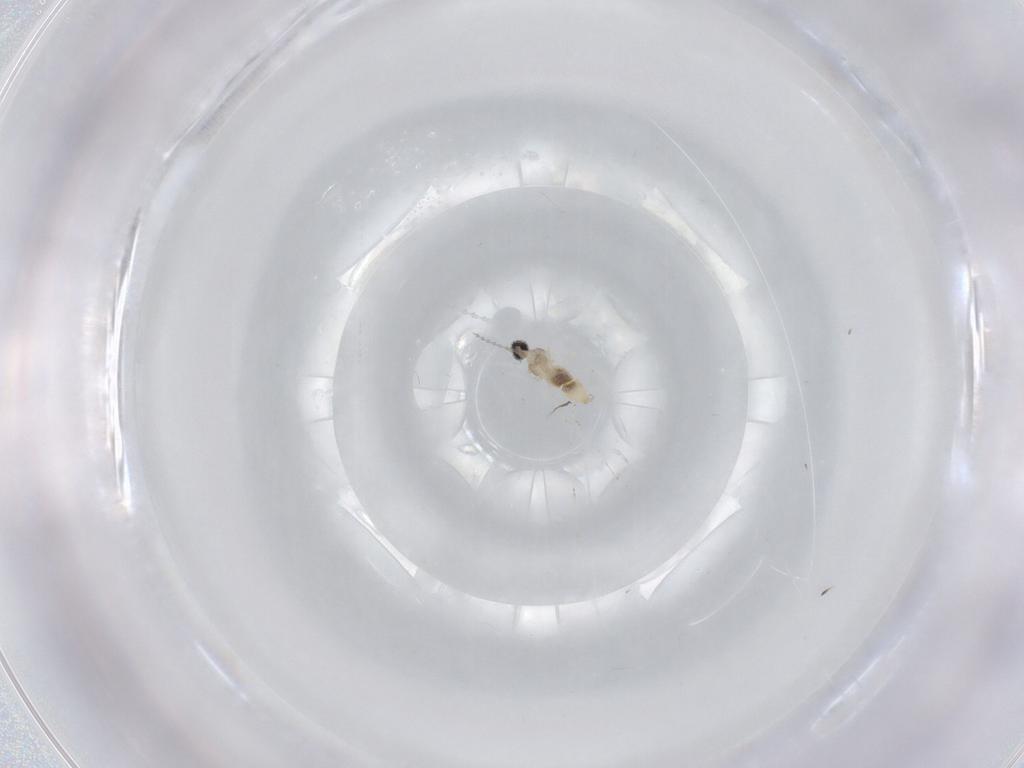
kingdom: Animalia
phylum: Arthropoda
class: Insecta
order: Diptera
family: Cecidomyiidae
